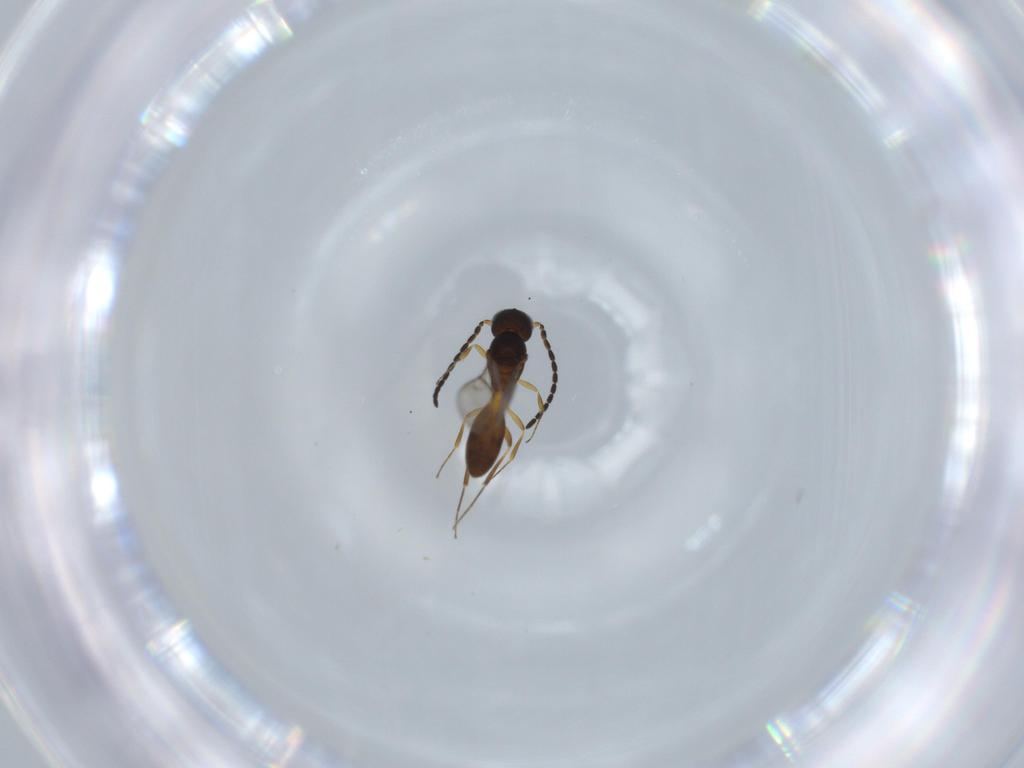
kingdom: Animalia
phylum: Arthropoda
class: Insecta
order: Hymenoptera
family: Scelionidae
